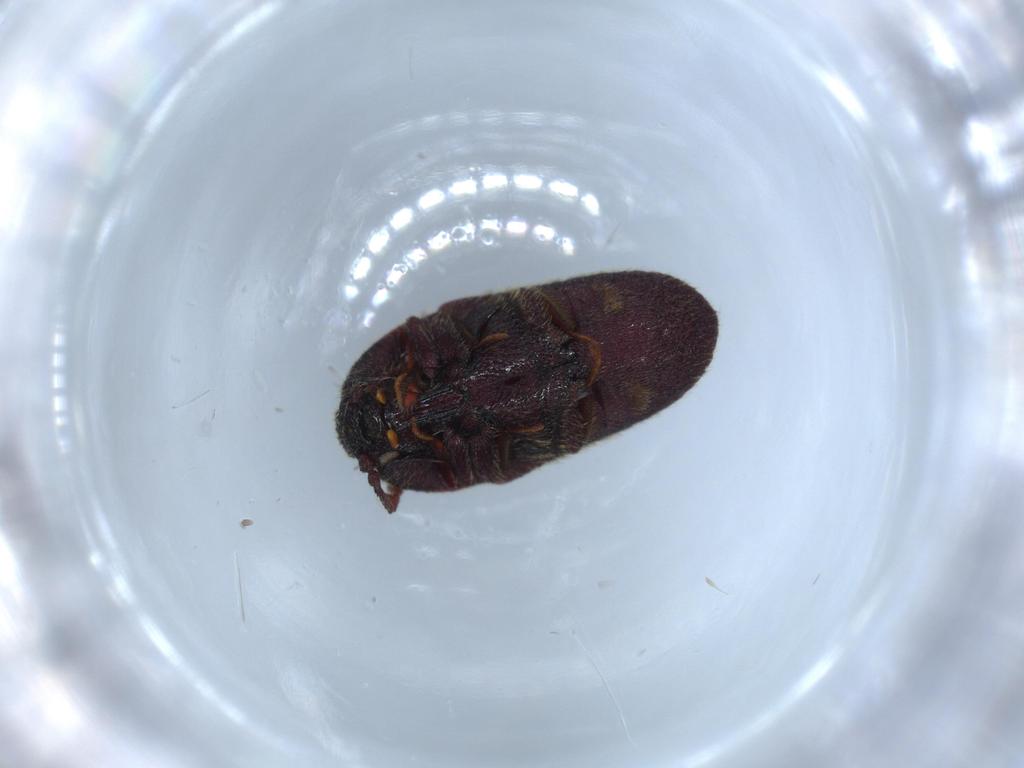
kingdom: Animalia
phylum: Arthropoda
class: Insecta
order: Coleoptera
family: Throscidae
